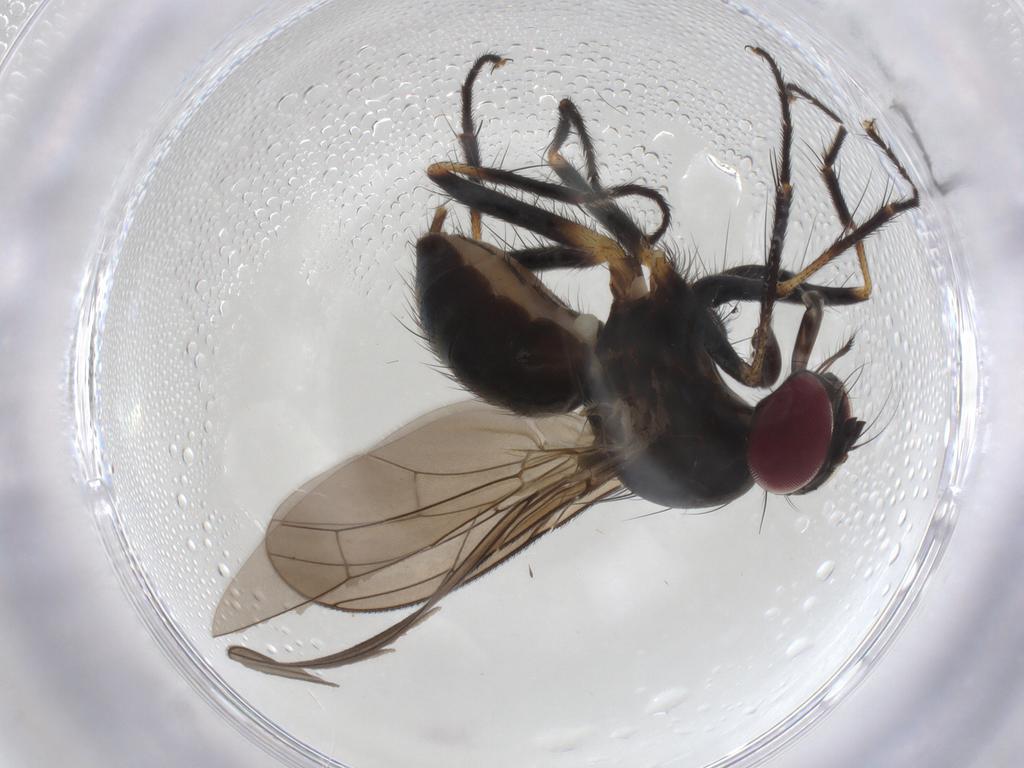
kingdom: Animalia
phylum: Arthropoda
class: Insecta
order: Diptera
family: Anthomyiidae
